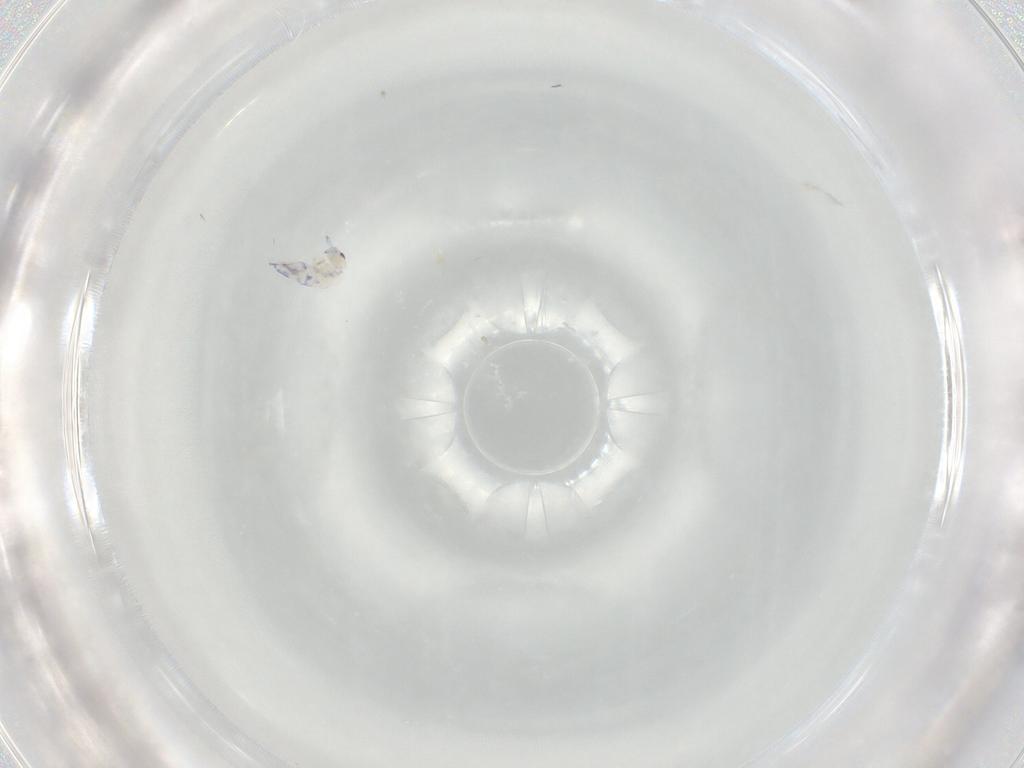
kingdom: Animalia
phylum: Arthropoda
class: Collembola
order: Entomobryomorpha
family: Entomobryidae
